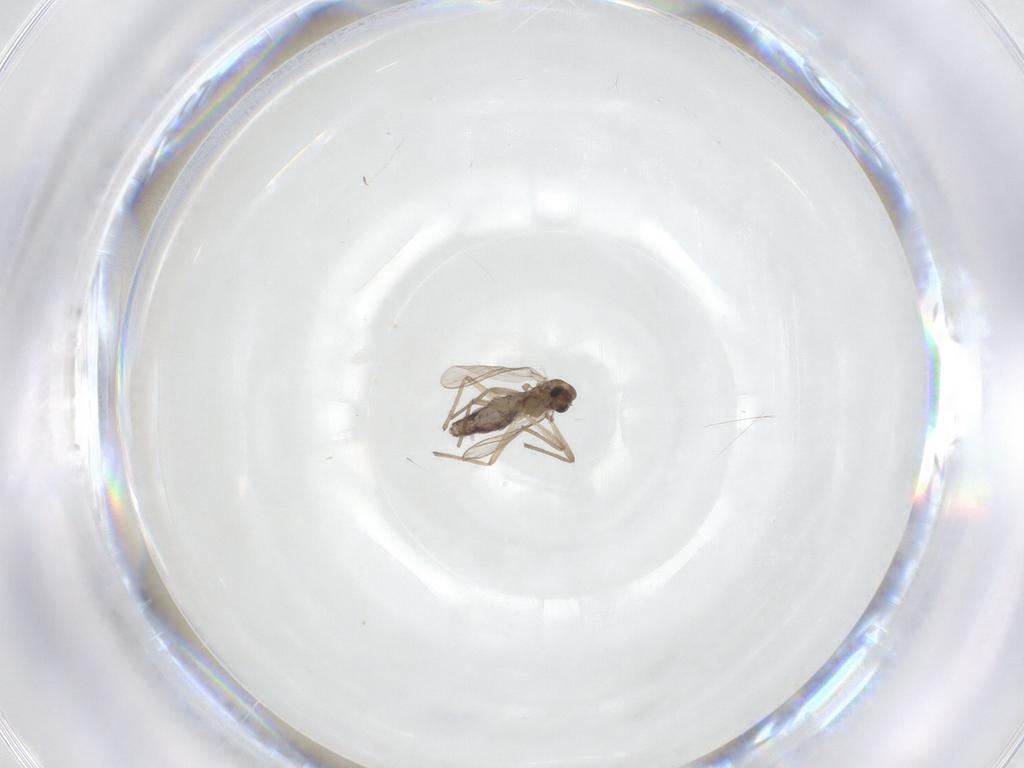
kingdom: Animalia
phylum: Arthropoda
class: Insecta
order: Diptera
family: Chironomidae
